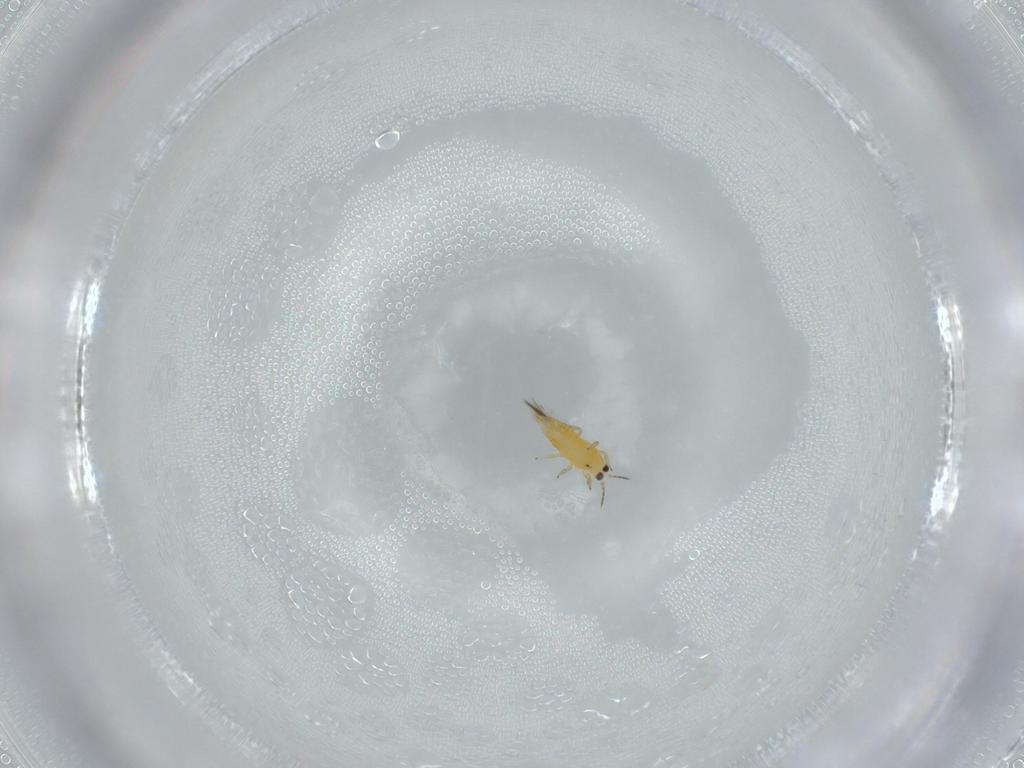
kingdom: Animalia
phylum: Arthropoda
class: Insecta
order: Thysanoptera
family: Thripidae
